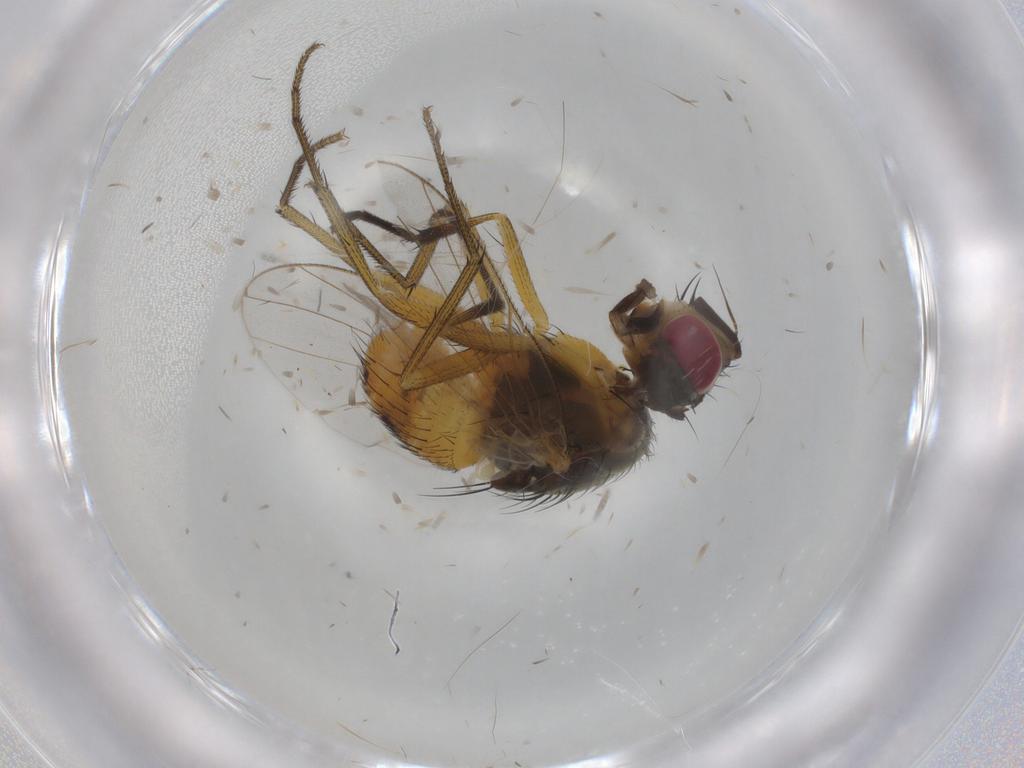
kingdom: Animalia
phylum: Arthropoda
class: Insecta
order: Diptera
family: Muscidae
